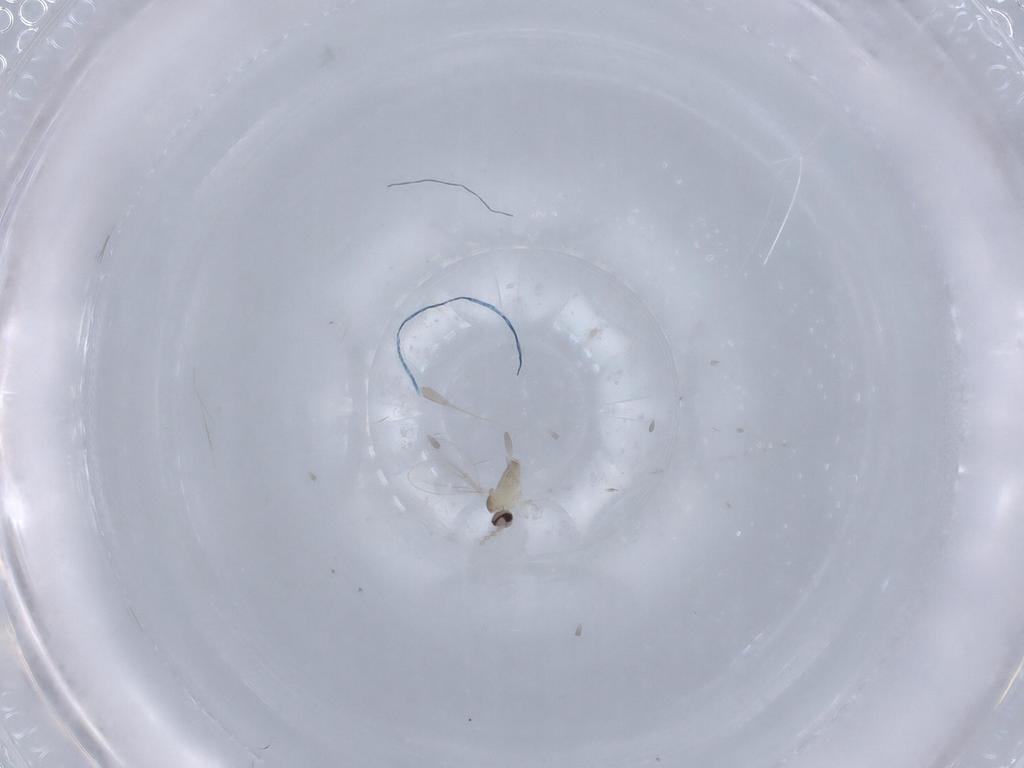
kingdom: Animalia
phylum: Arthropoda
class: Insecta
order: Diptera
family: Cecidomyiidae
